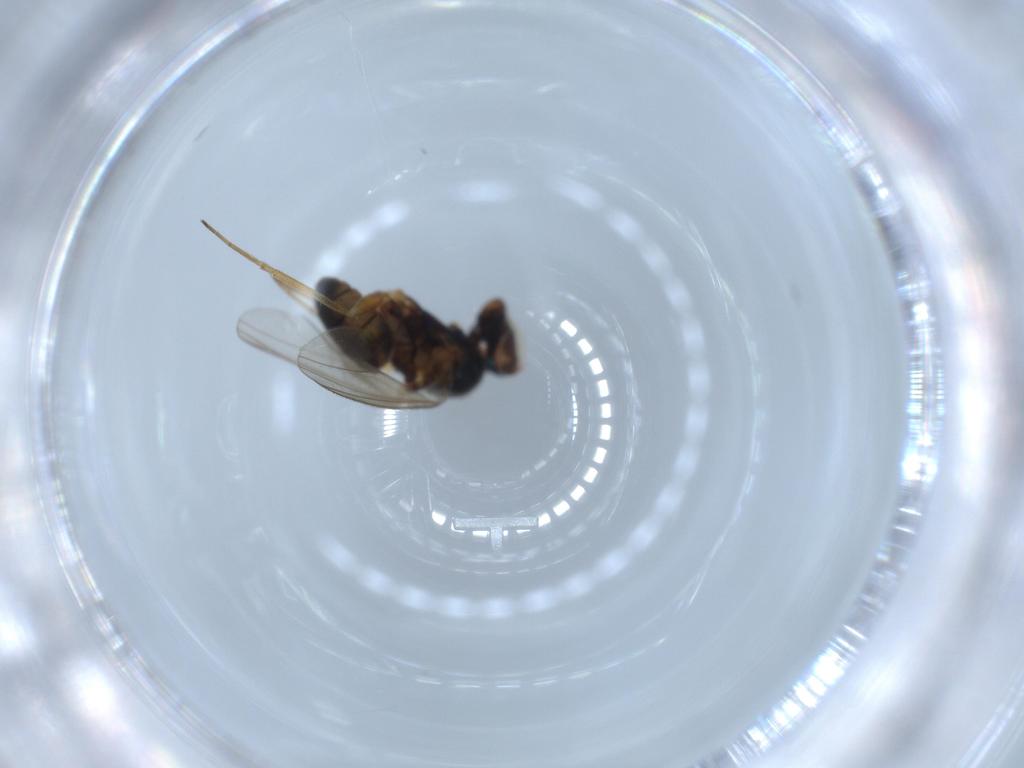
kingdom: Animalia
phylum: Arthropoda
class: Insecta
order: Diptera
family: Dolichopodidae
